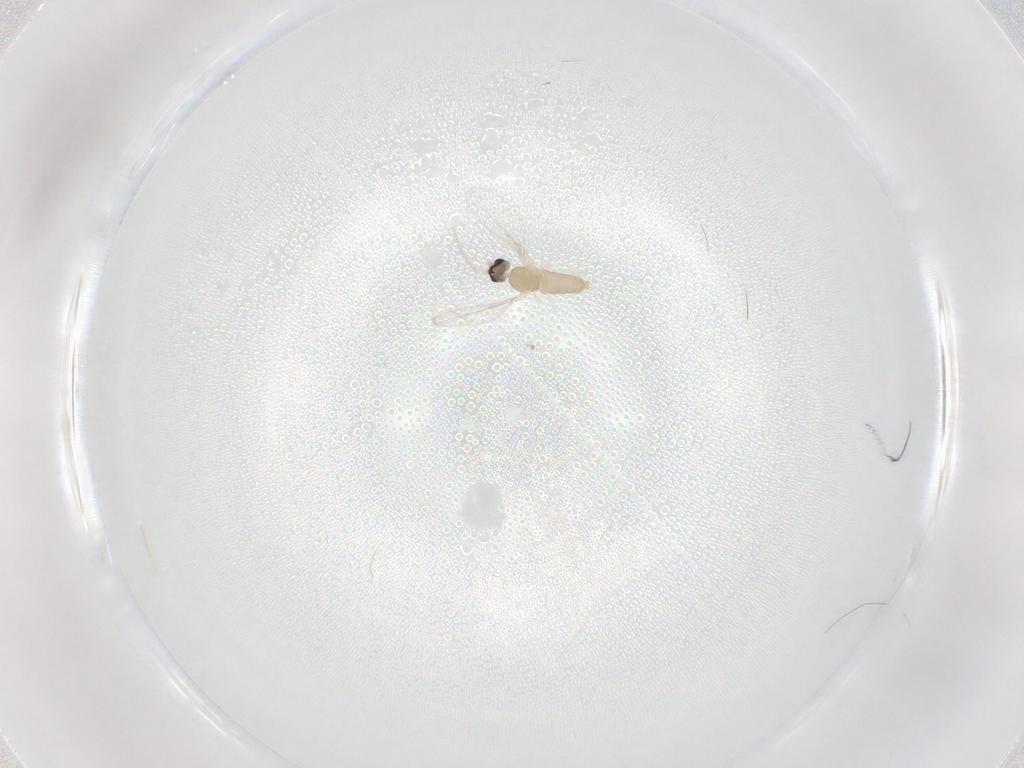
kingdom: Animalia
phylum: Arthropoda
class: Insecta
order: Diptera
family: Cecidomyiidae
